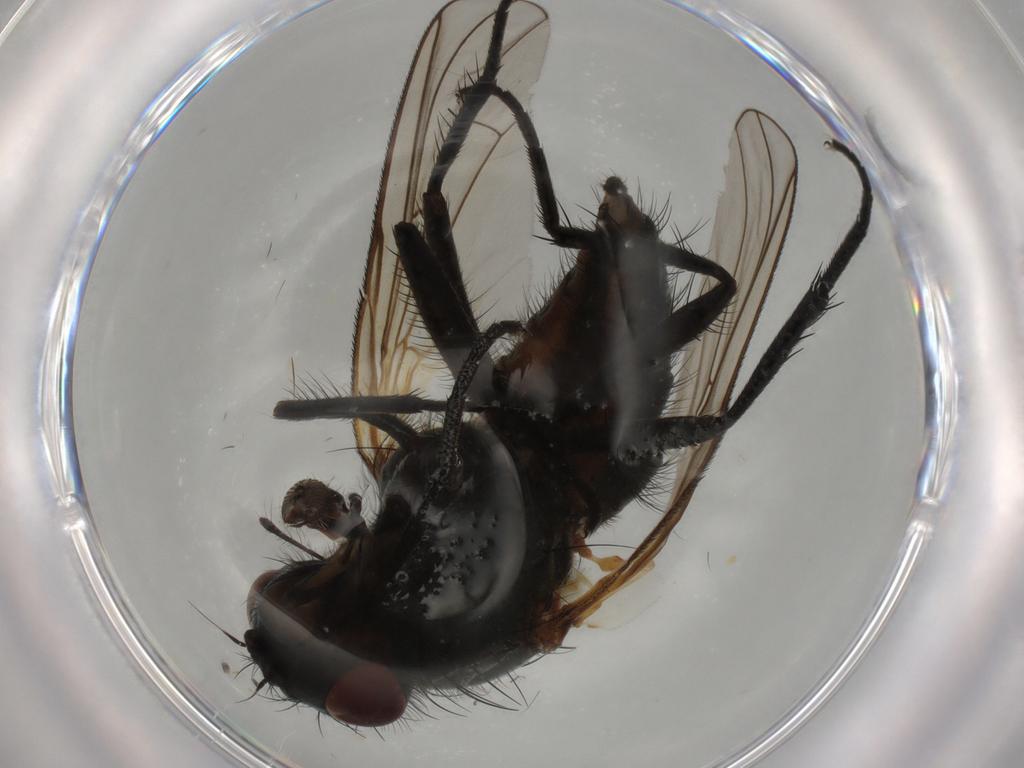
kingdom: Animalia
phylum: Arthropoda
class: Insecta
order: Diptera
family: Anthomyiidae
